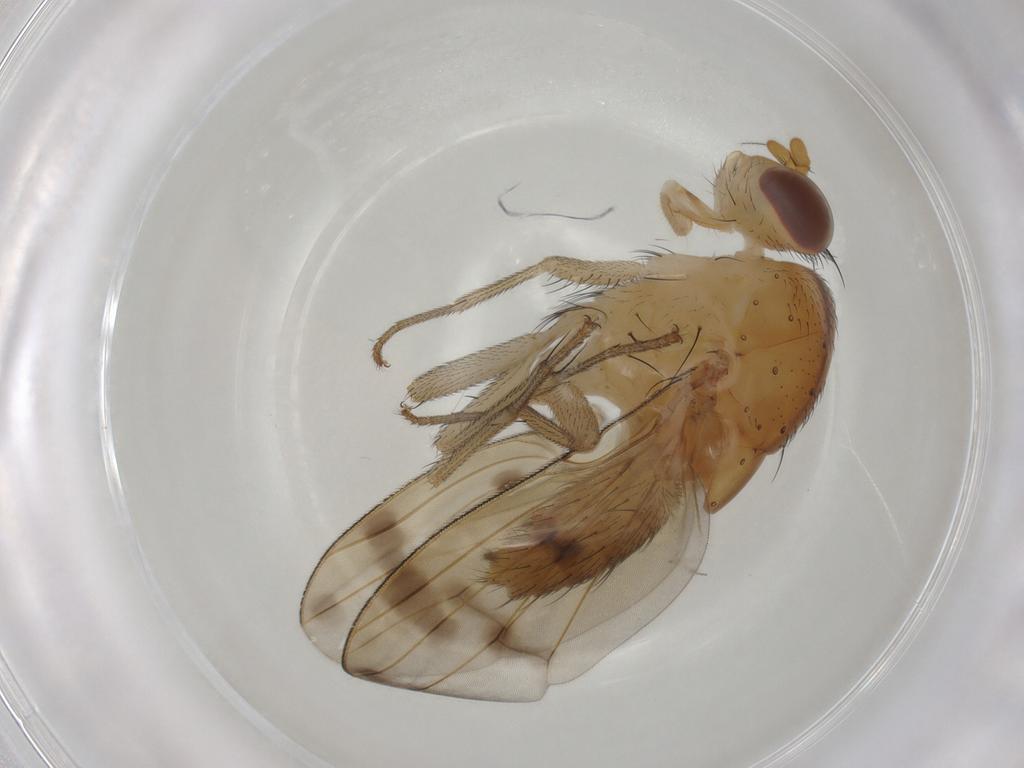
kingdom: Animalia
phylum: Arthropoda
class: Insecta
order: Diptera
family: Lauxaniidae
